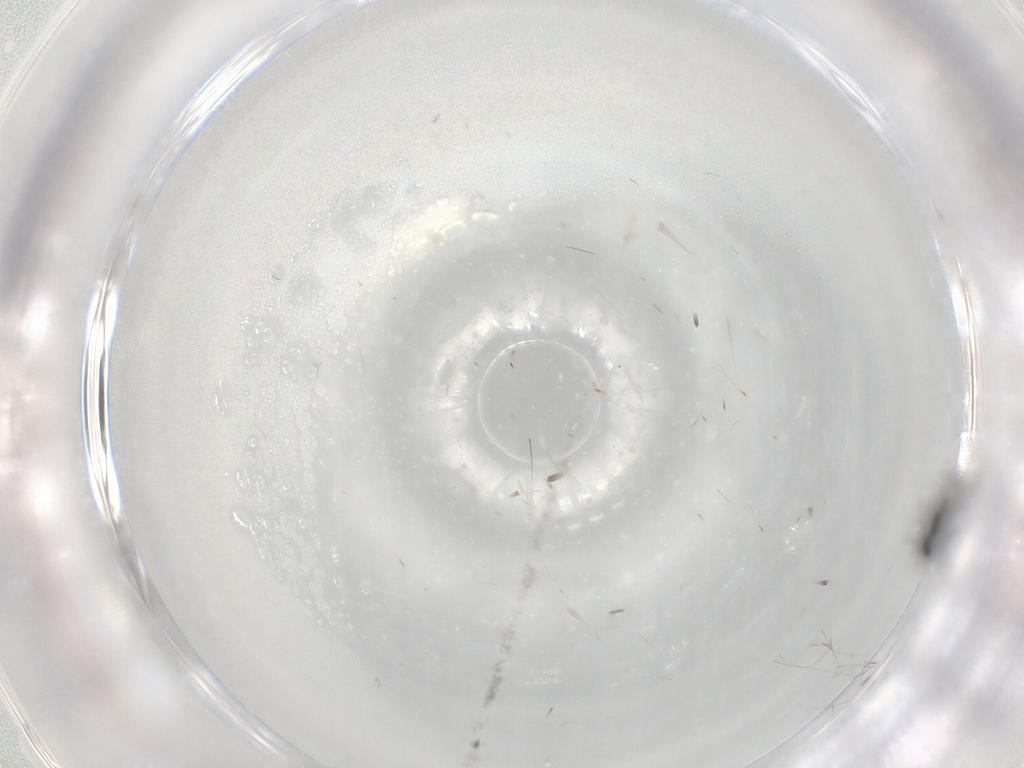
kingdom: Animalia
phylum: Arthropoda
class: Insecta
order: Hymenoptera
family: Scelionidae
